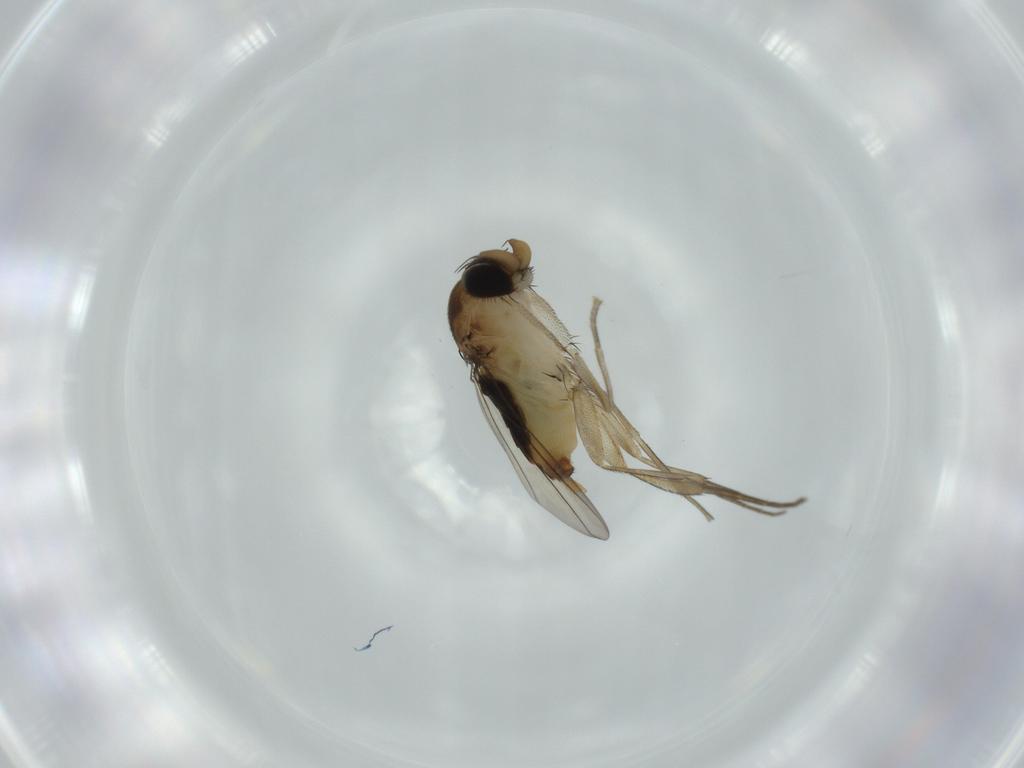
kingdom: Animalia
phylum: Arthropoda
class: Insecta
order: Diptera
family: Phoridae
